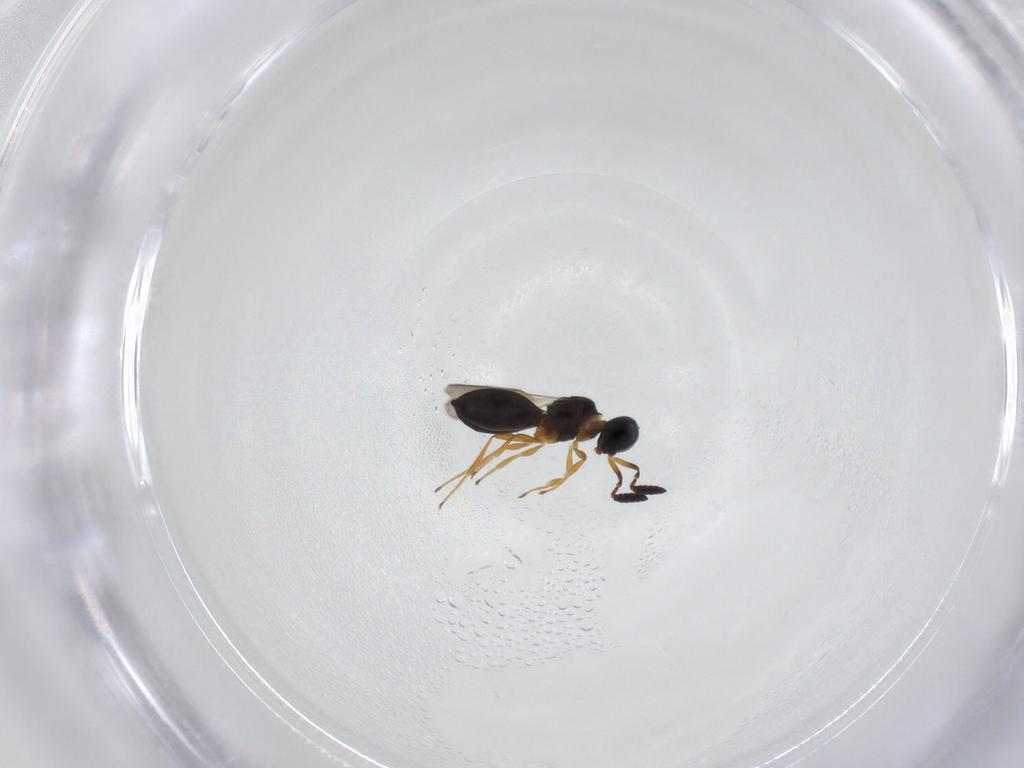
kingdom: Animalia
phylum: Arthropoda
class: Insecta
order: Hymenoptera
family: Scelionidae
